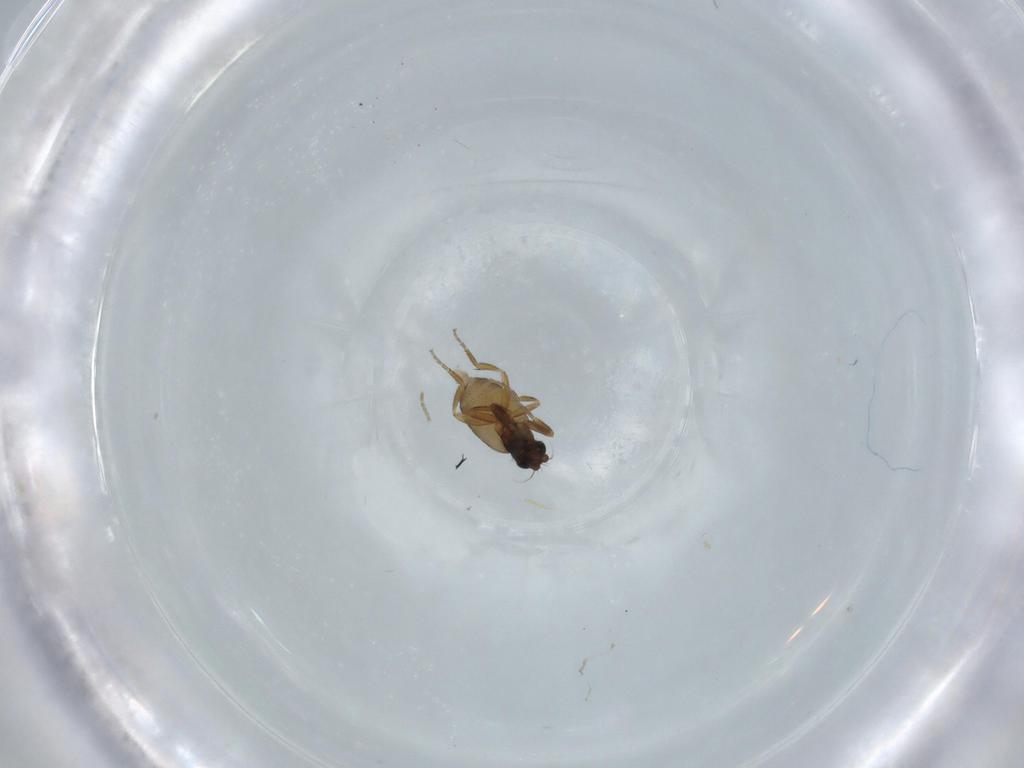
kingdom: Animalia
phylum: Arthropoda
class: Insecta
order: Diptera
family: Phoridae
